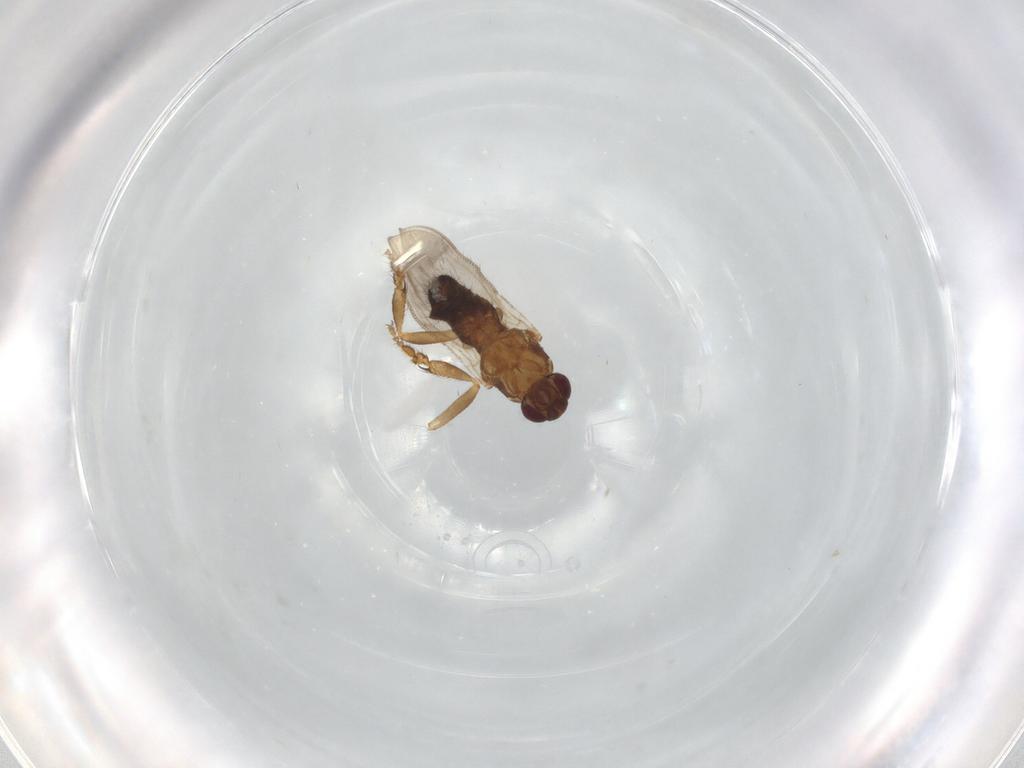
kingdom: Animalia
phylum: Arthropoda
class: Insecta
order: Diptera
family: Sphaeroceridae
